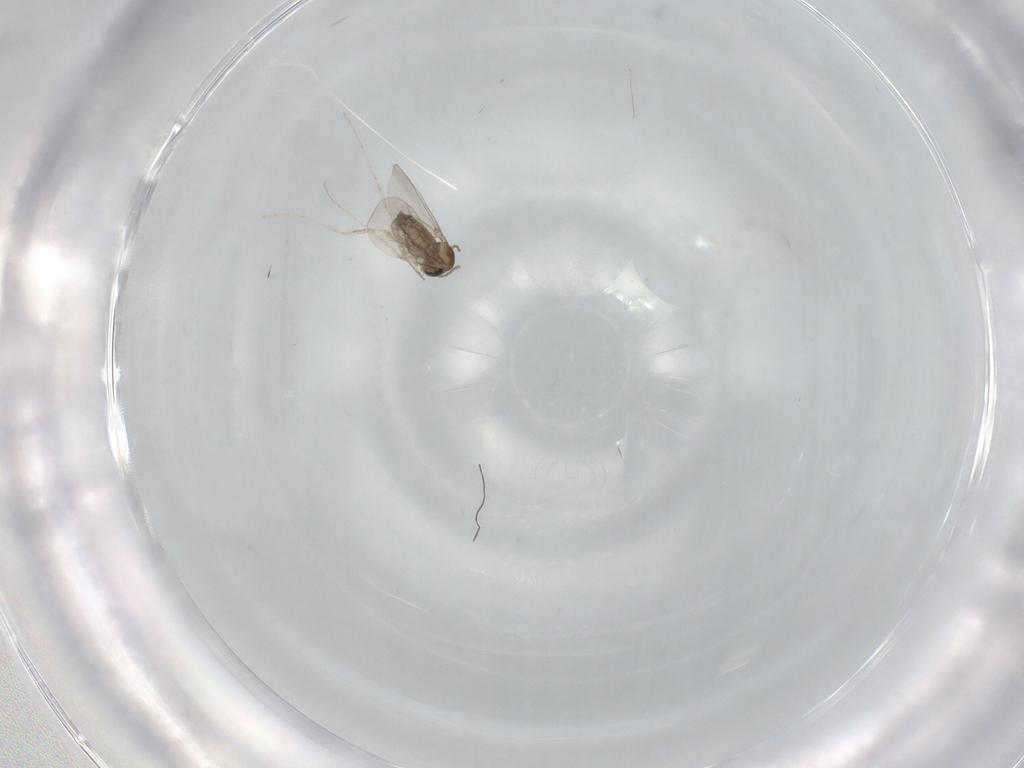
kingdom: Animalia
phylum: Arthropoda
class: Insecta
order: Diptera
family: Cecidomyiidae
